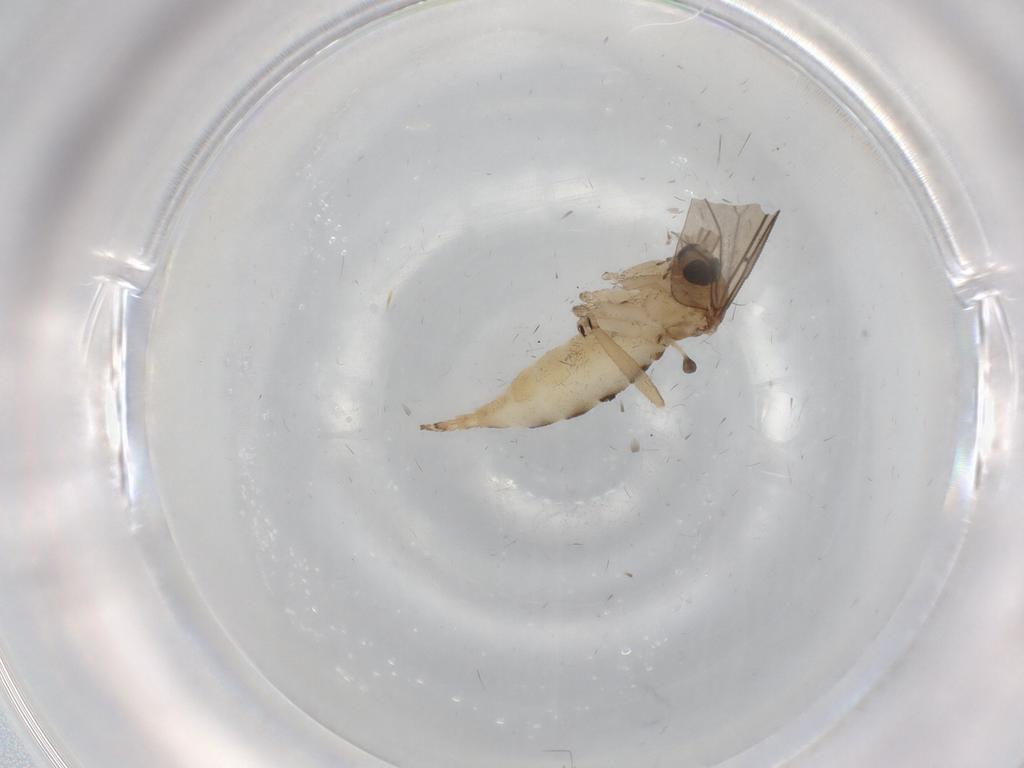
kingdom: Animalia
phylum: Arthropoda
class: Insecta
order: Diptera
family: Sciaridae
